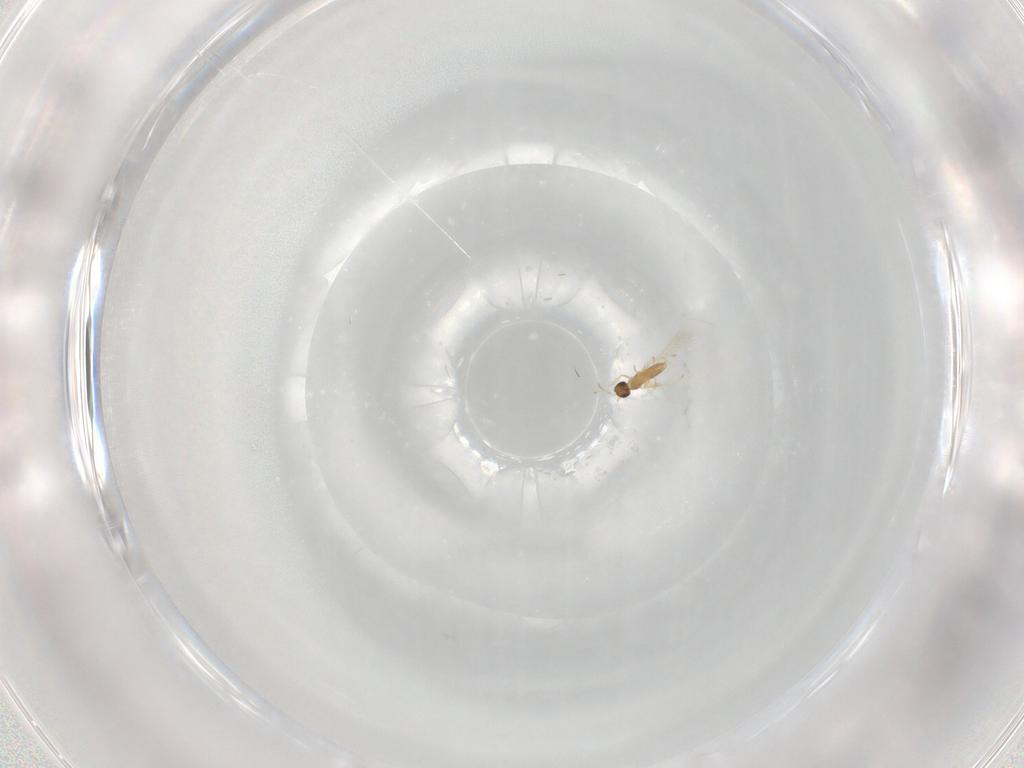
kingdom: Animalia
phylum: Arthropoda
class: Insecta
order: Hymenoptera
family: Mymaridae
